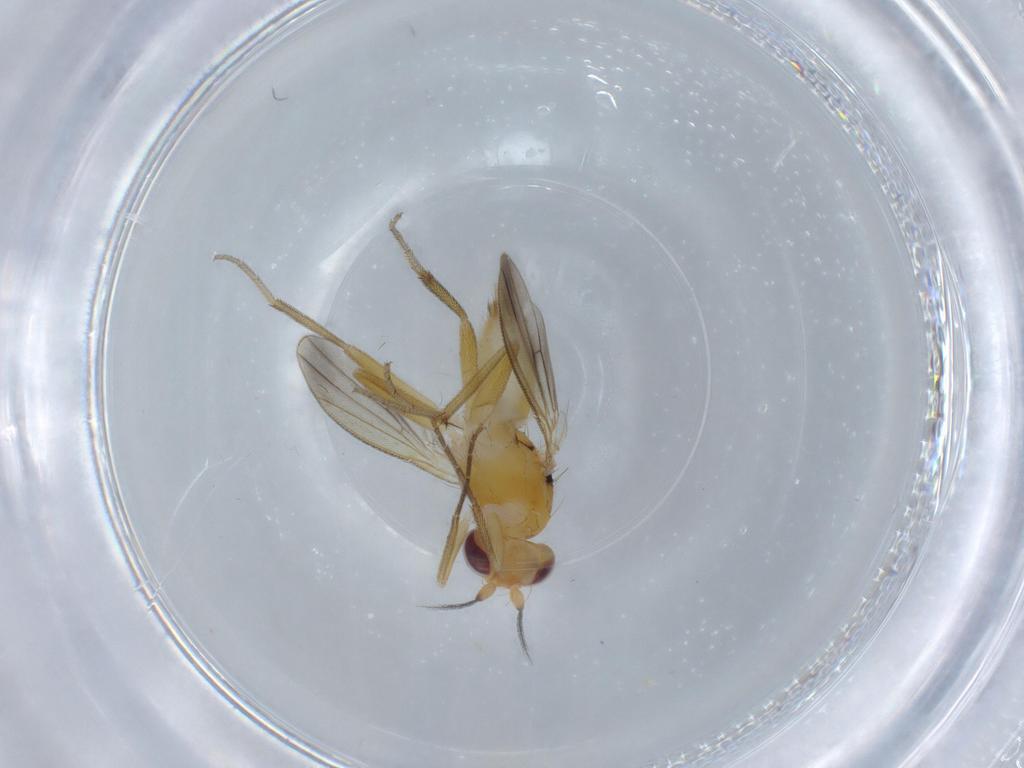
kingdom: Animalia
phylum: Arthropoda
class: Insecta
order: Diptera
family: Clusiidae
